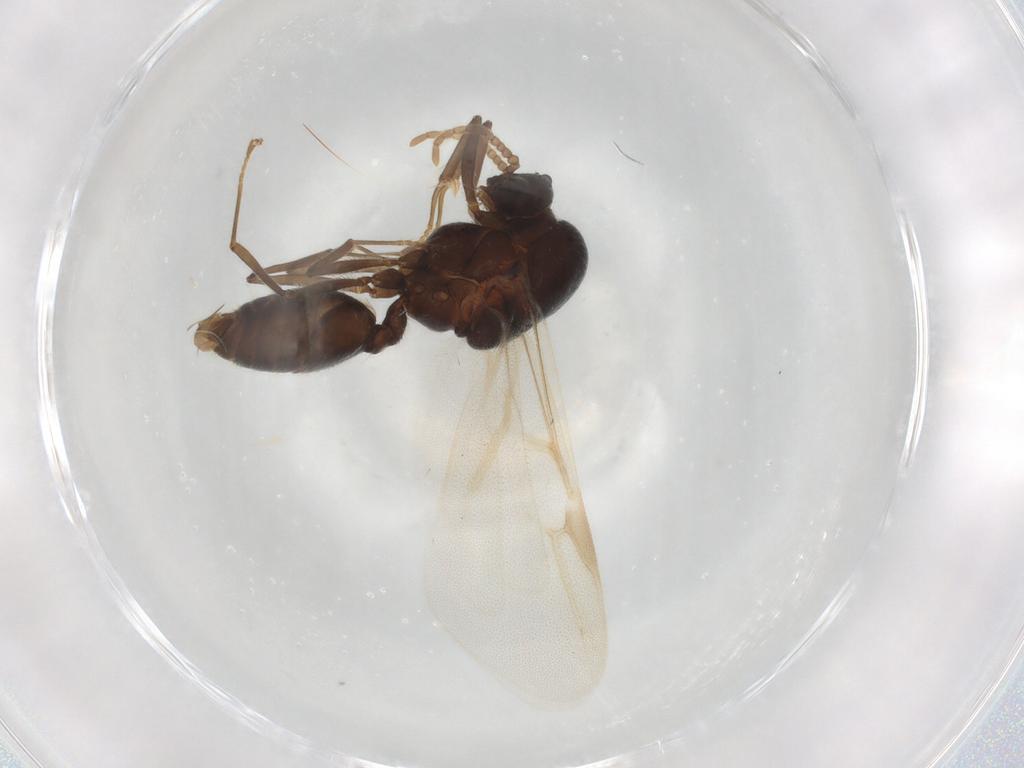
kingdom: Animalia
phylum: Arthropoda
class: Insecta
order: Hymenoptera
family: Formicidae
